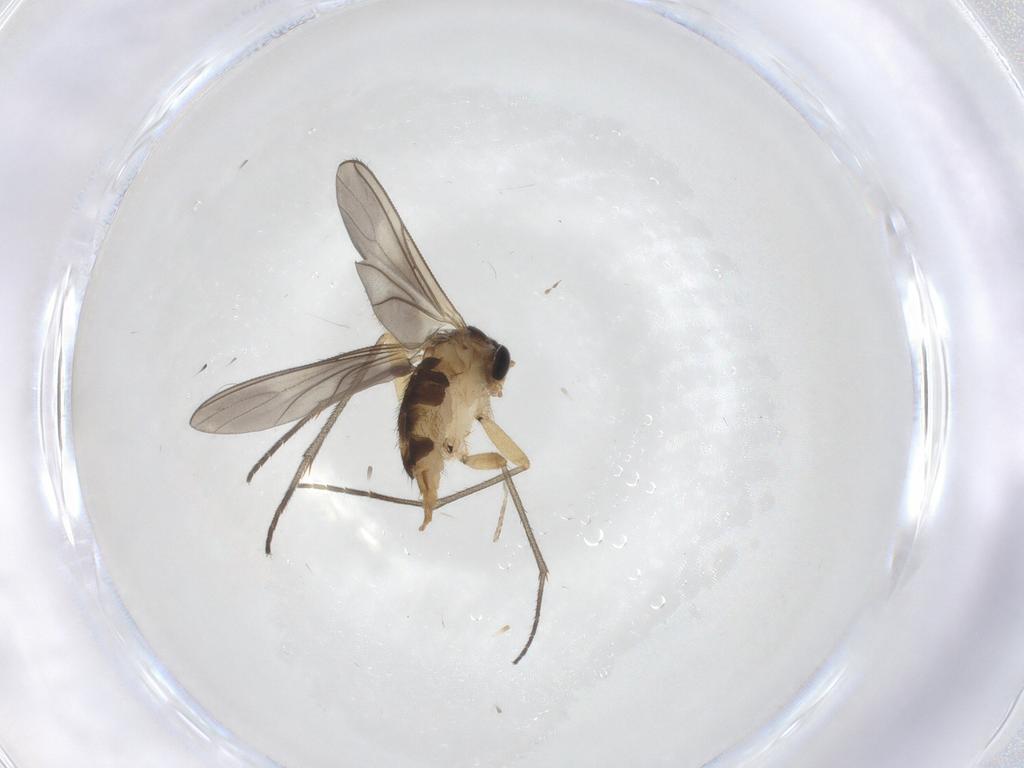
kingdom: Animalia
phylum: Arthropoda
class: Insecta
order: Diptera
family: Sciaridae
